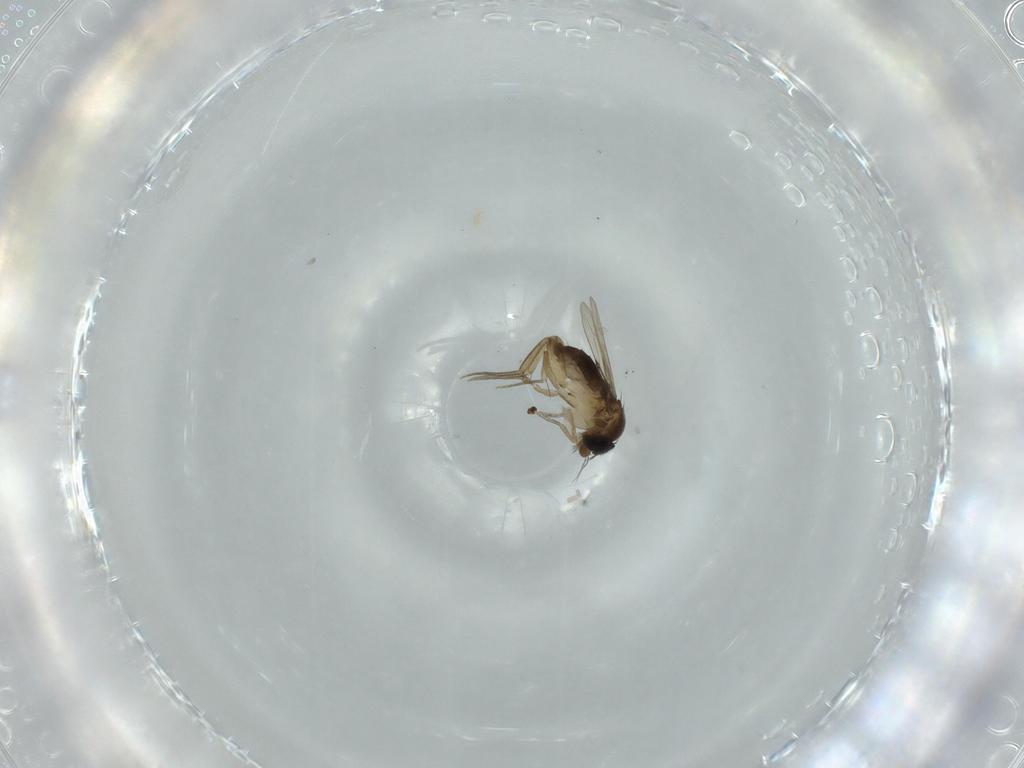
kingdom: Animalia
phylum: Arthropoda
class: Insecta
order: Diptera
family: Phoridae
